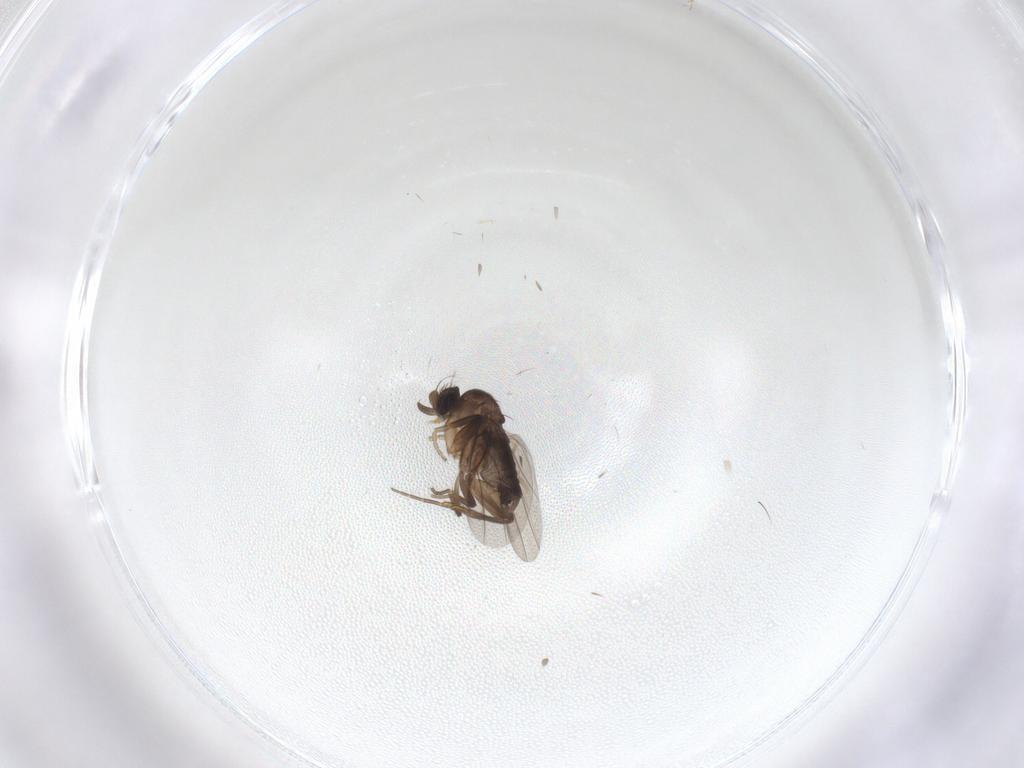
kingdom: Animalia
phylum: Arthropoda
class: Insecta
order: Diptera
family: Phoridae
